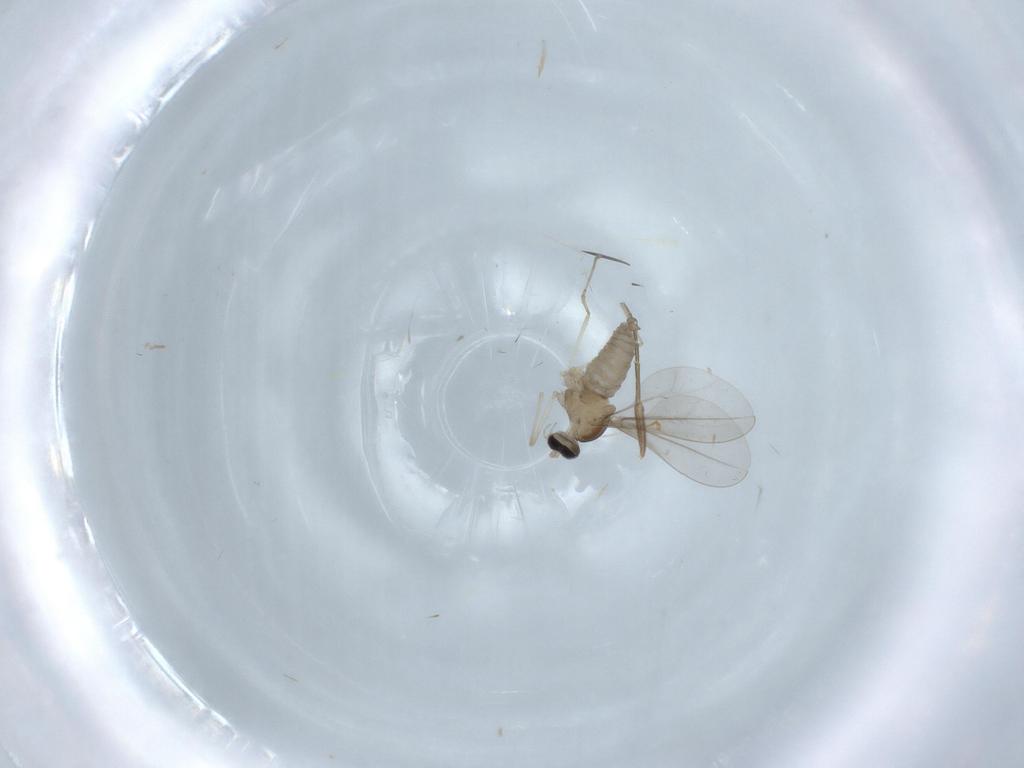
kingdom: Animalia
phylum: Arthropoda
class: Insecta
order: Diptera
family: Cecidomyiidae
